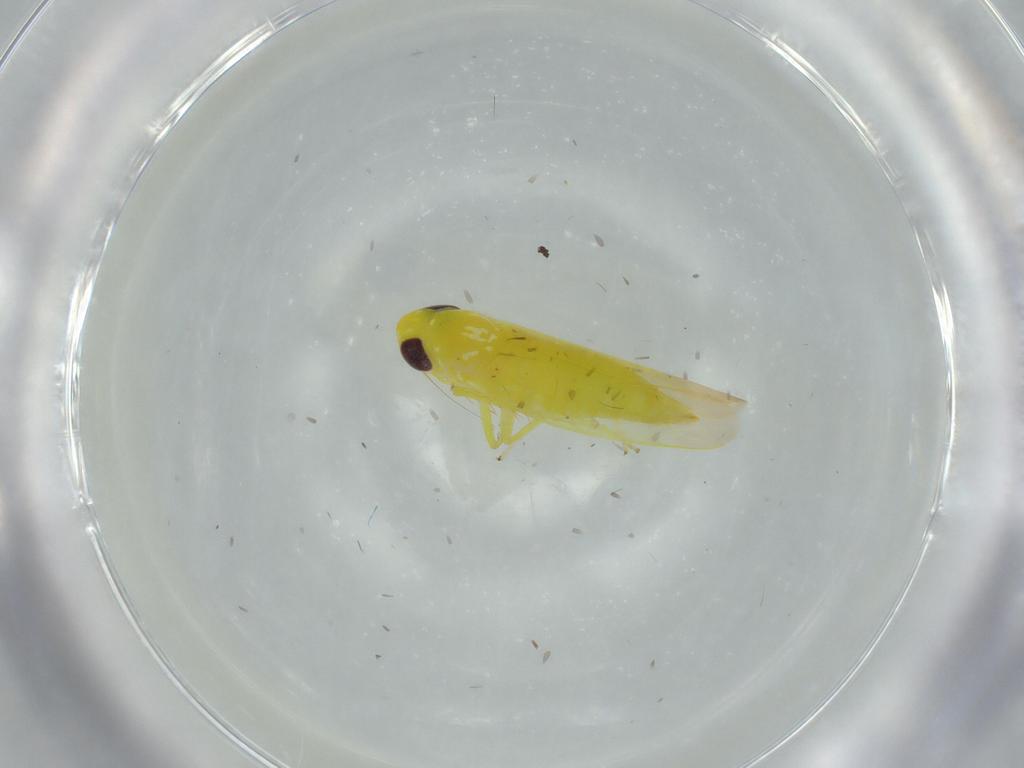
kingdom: Animalia
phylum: Arthropoda
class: Insecta
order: Hemiptera
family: Cicadellidae
